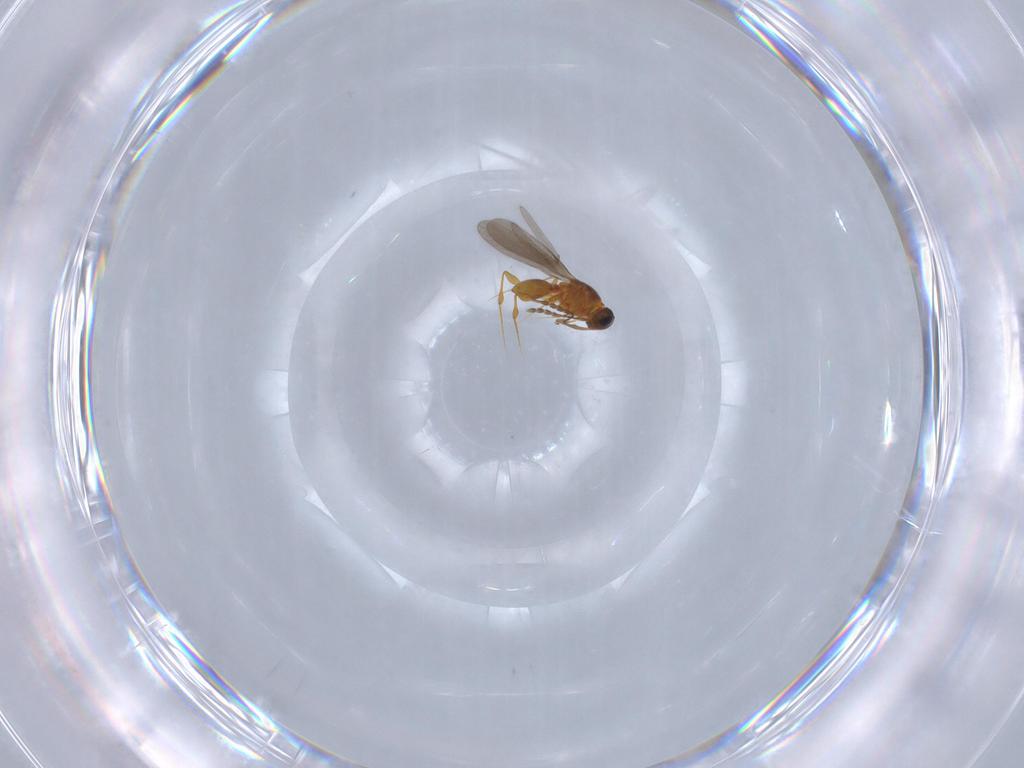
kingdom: Animalia
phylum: Arthropoda
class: Insecta
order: Hymenoptera
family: Platygastridae
